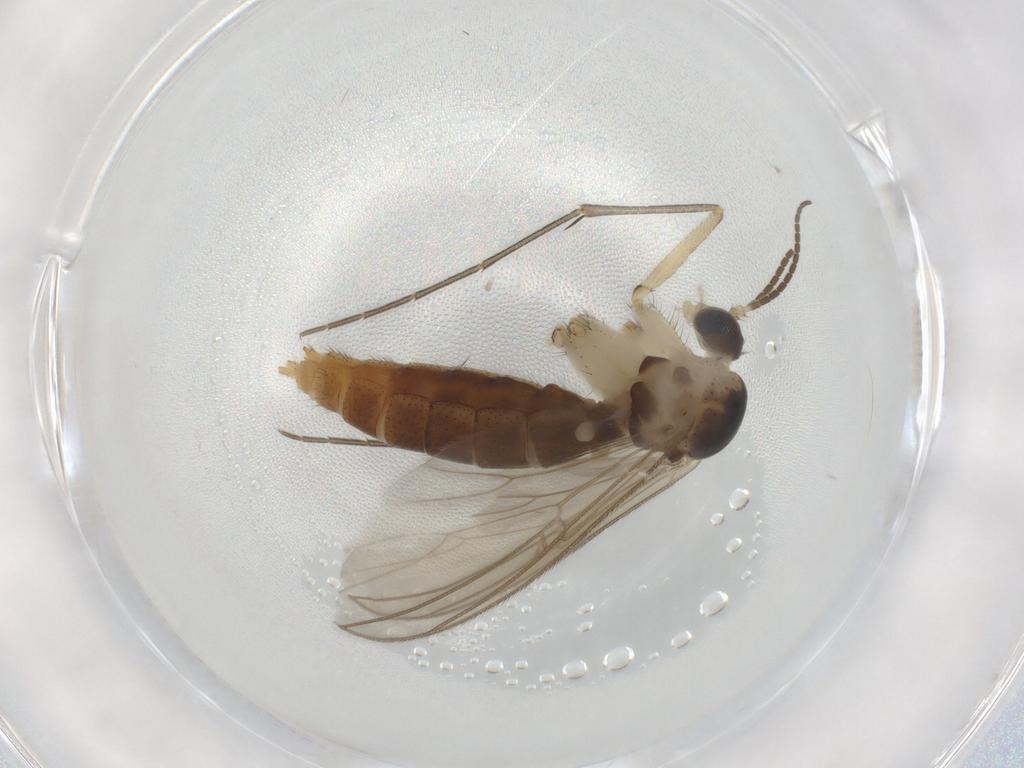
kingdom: Animalia
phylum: Arthropoda
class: Insecta
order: Diptera
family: Mycetophilidae
